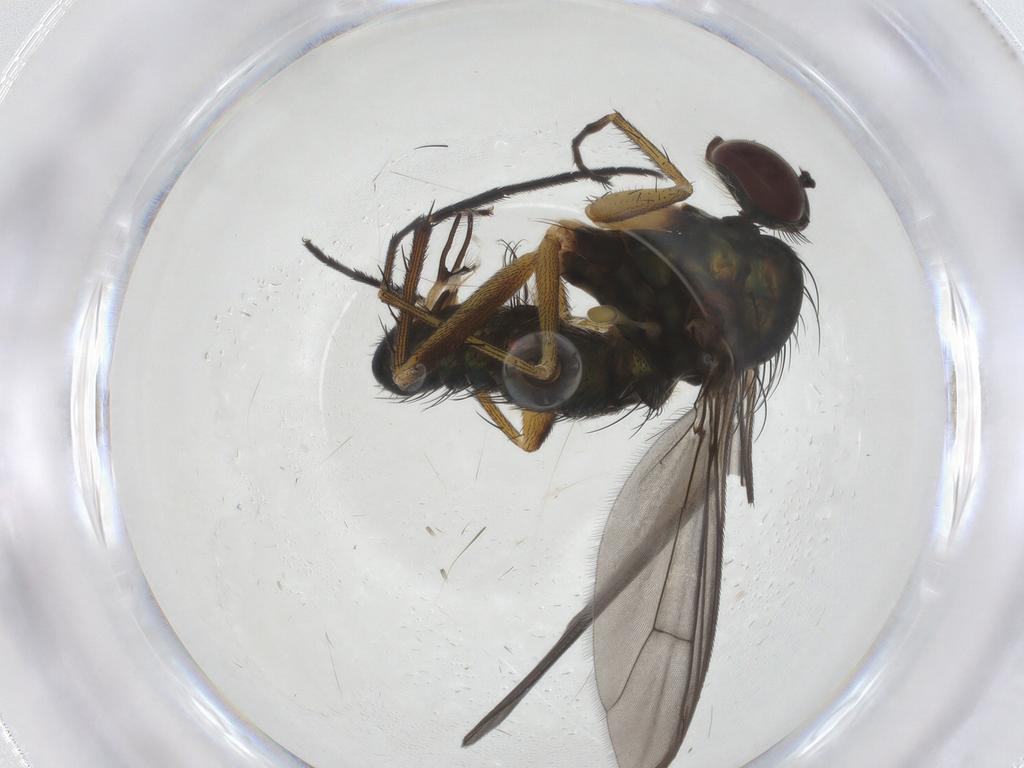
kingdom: Animalia
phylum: Arthropoda
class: Insecta
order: Diptera
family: Dolichopodidae
